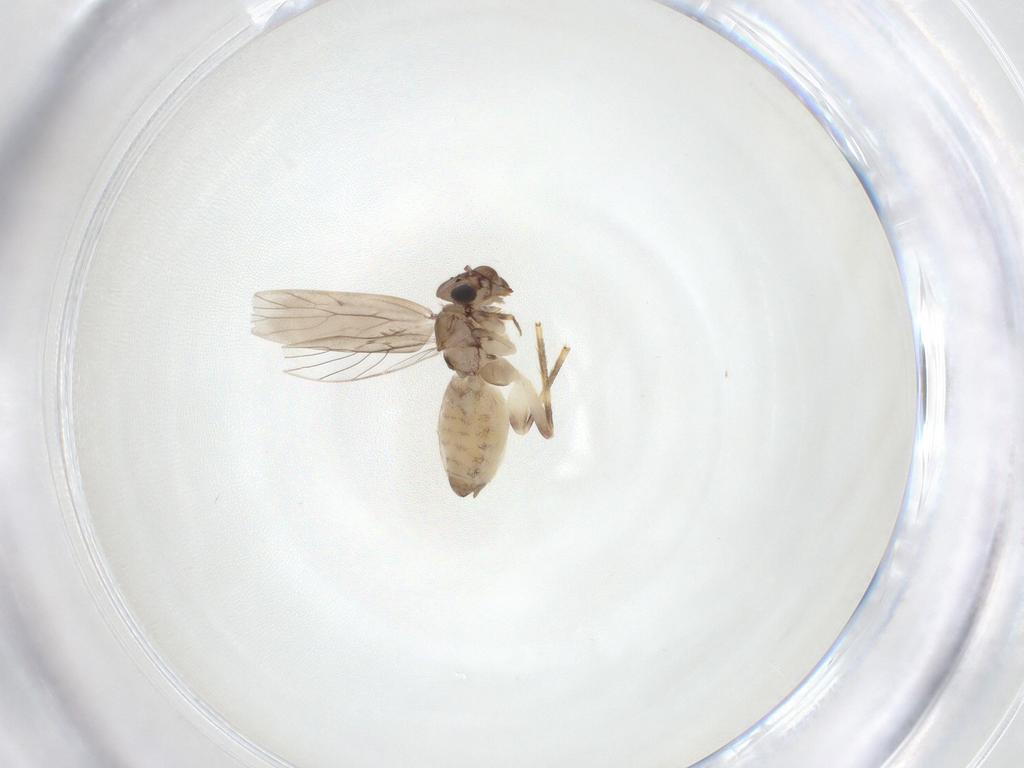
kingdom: Animalia
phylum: Arthropoda
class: Insecta
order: Psocodea
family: Lepidopsocidae
